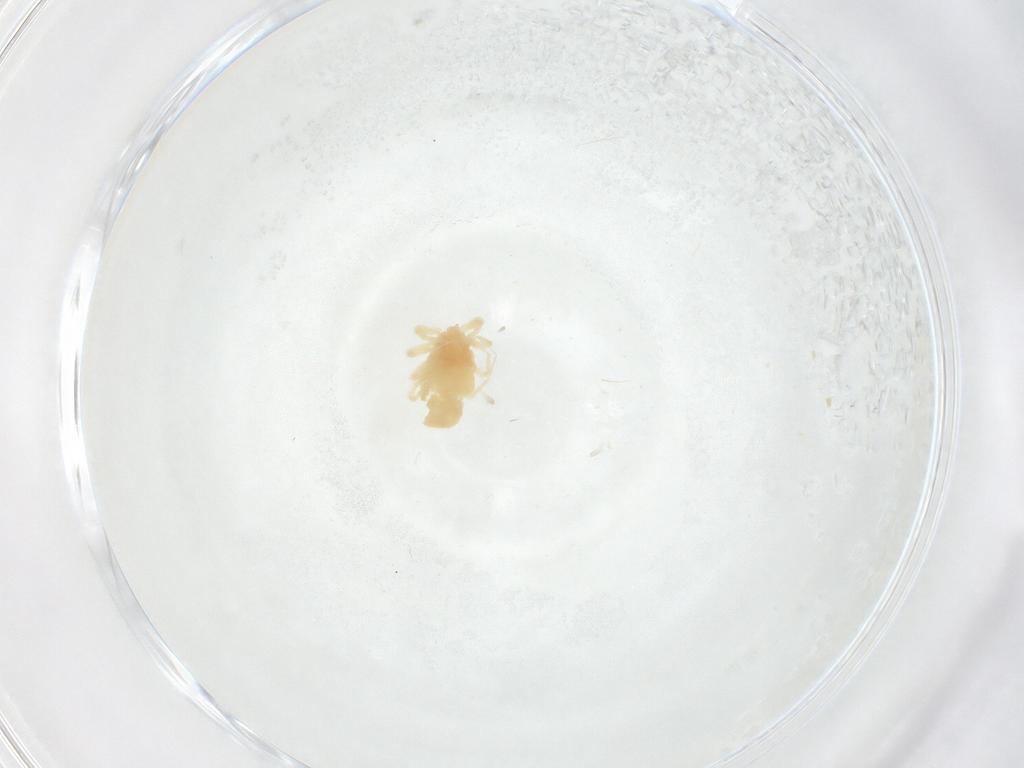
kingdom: Animalia
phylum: Arthropoda
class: Arachnida
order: Trombidiformes
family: Anystidae
